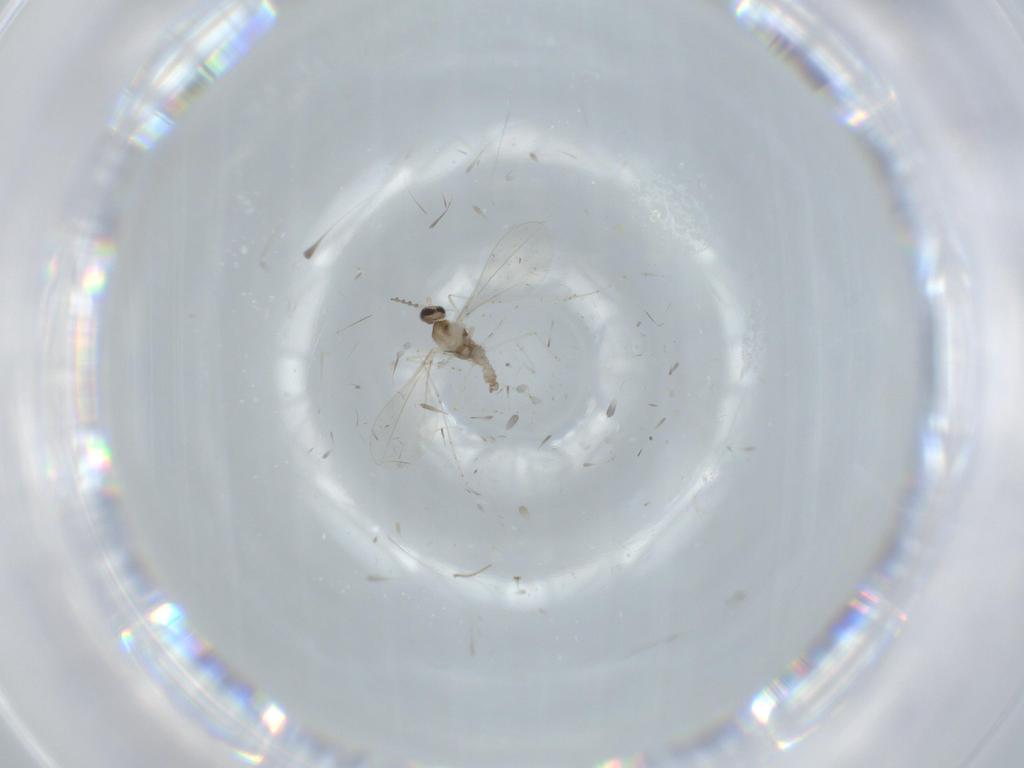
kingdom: Animalia
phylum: Arthropoda
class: Insecta
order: Diptera
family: Cecidomyiidae
